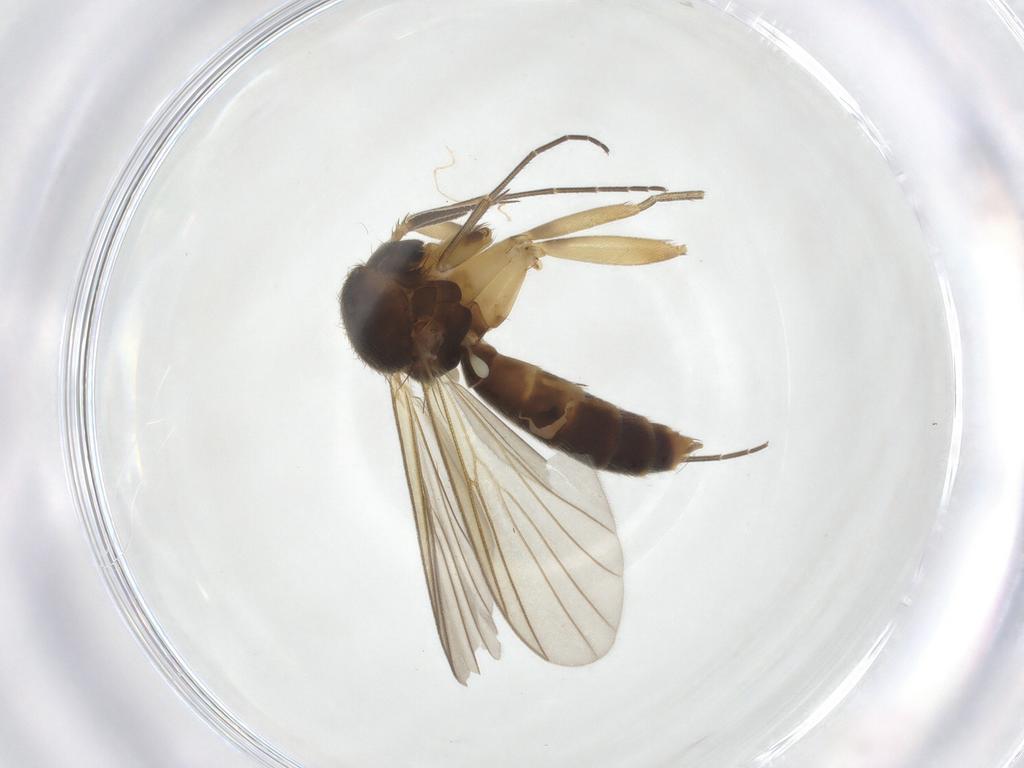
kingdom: Animalia
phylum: Arthropoda
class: Insecta
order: Diptera
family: Mycetophilidae
